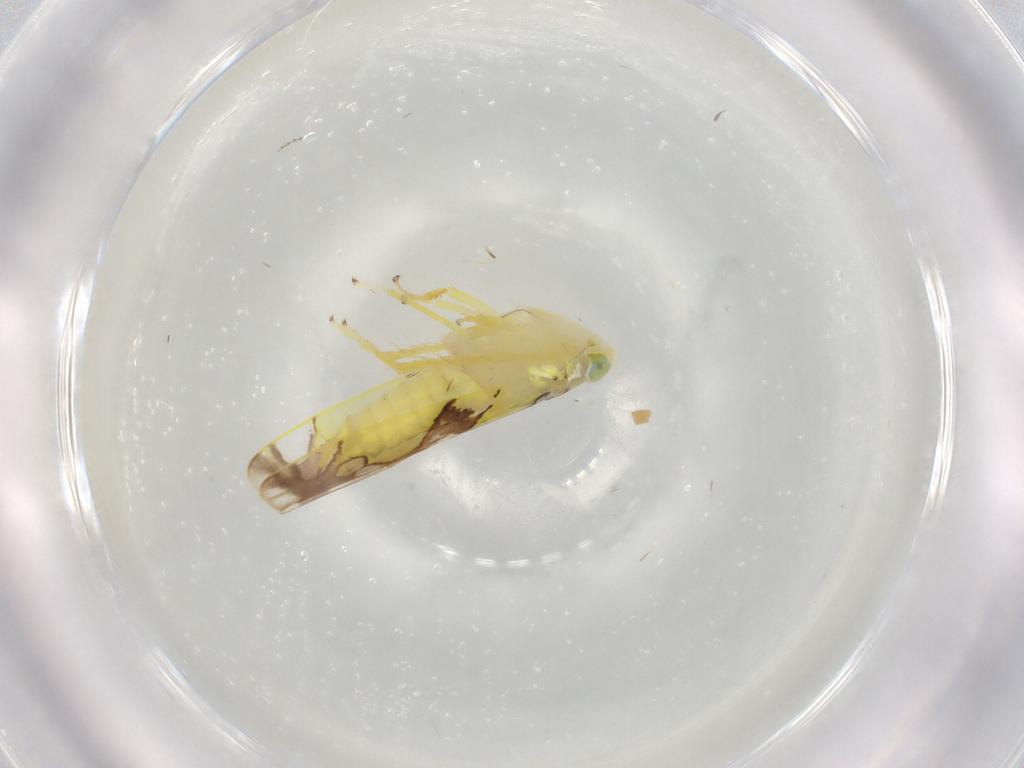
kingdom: Animalia
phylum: Arthropoda
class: Insecta
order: Hemiptera
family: Cicadellidae
